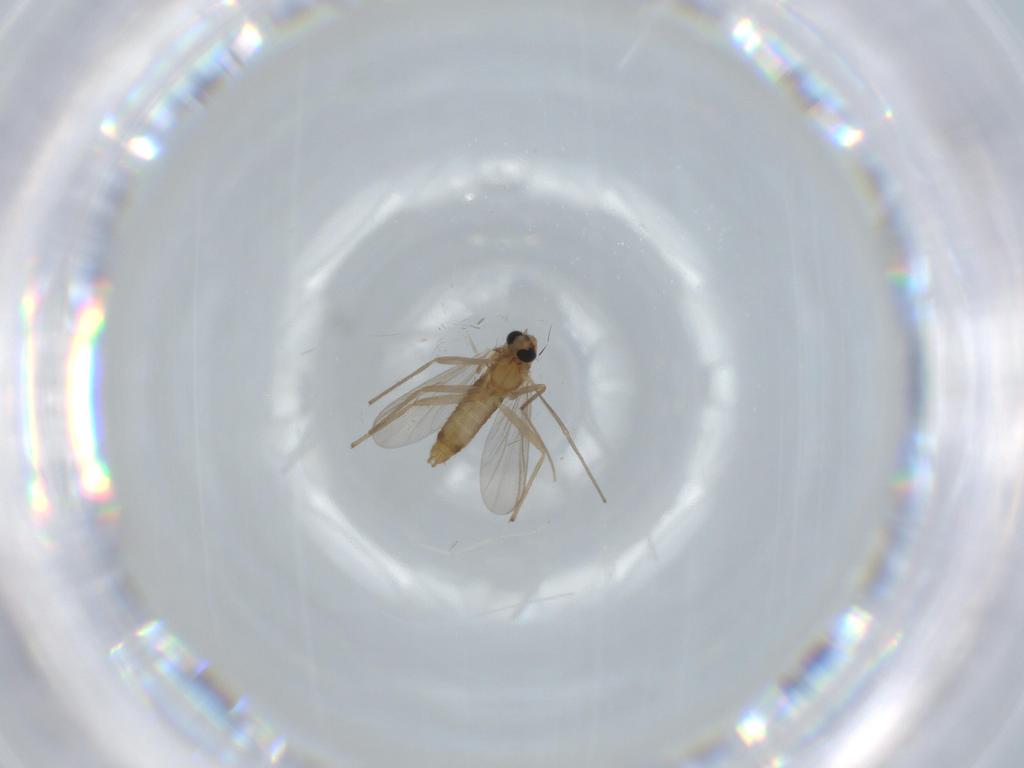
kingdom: Animalia
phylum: Arthropoda
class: Insecta
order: Diptera
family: Chironomidae
